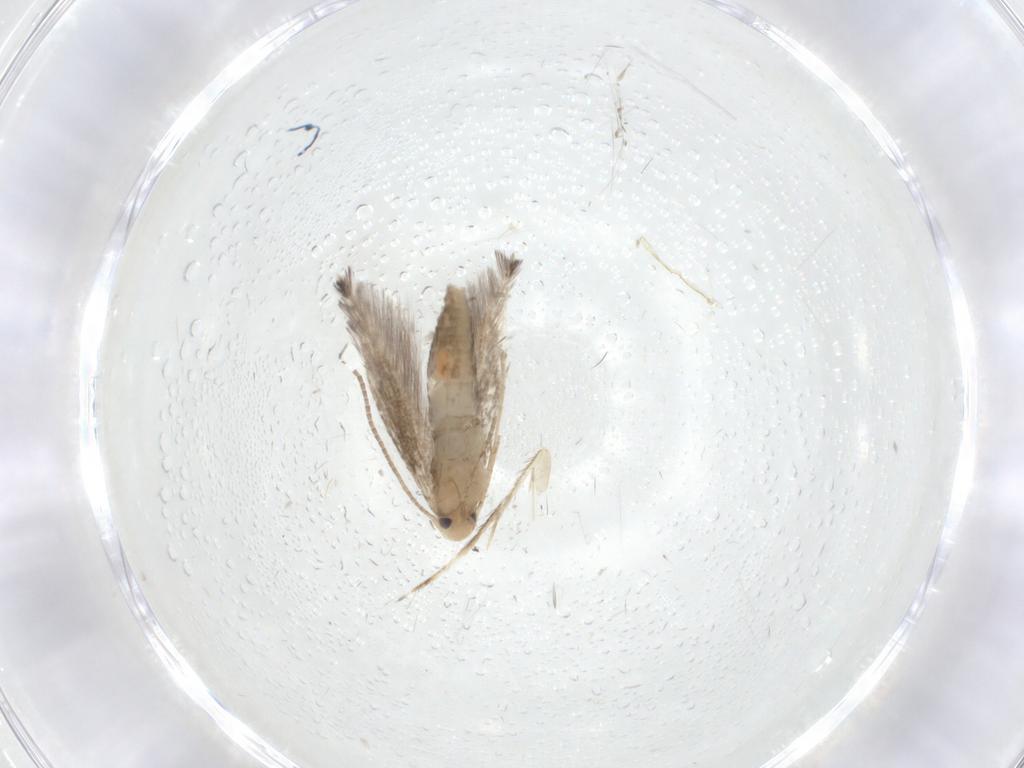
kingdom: Animalia
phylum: Arthropoda
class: Insecta
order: Lepidoptera
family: Gracillariidae
